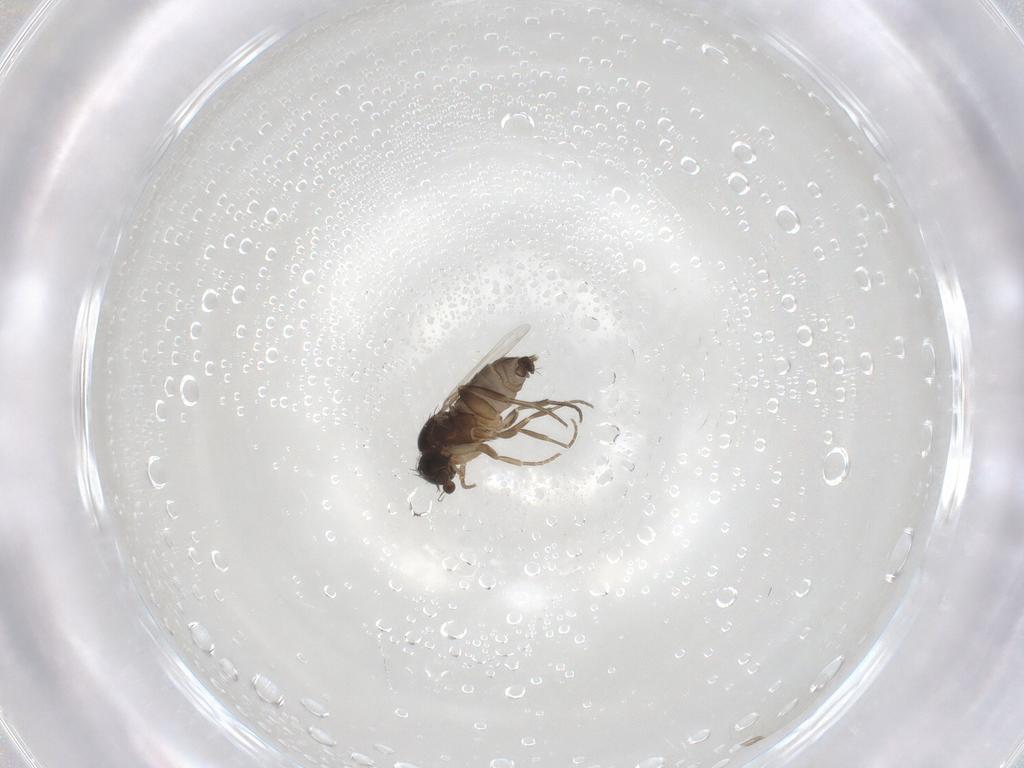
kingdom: Animalia
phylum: Arthropoda
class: Insecta
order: Diptera
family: Phoridae
